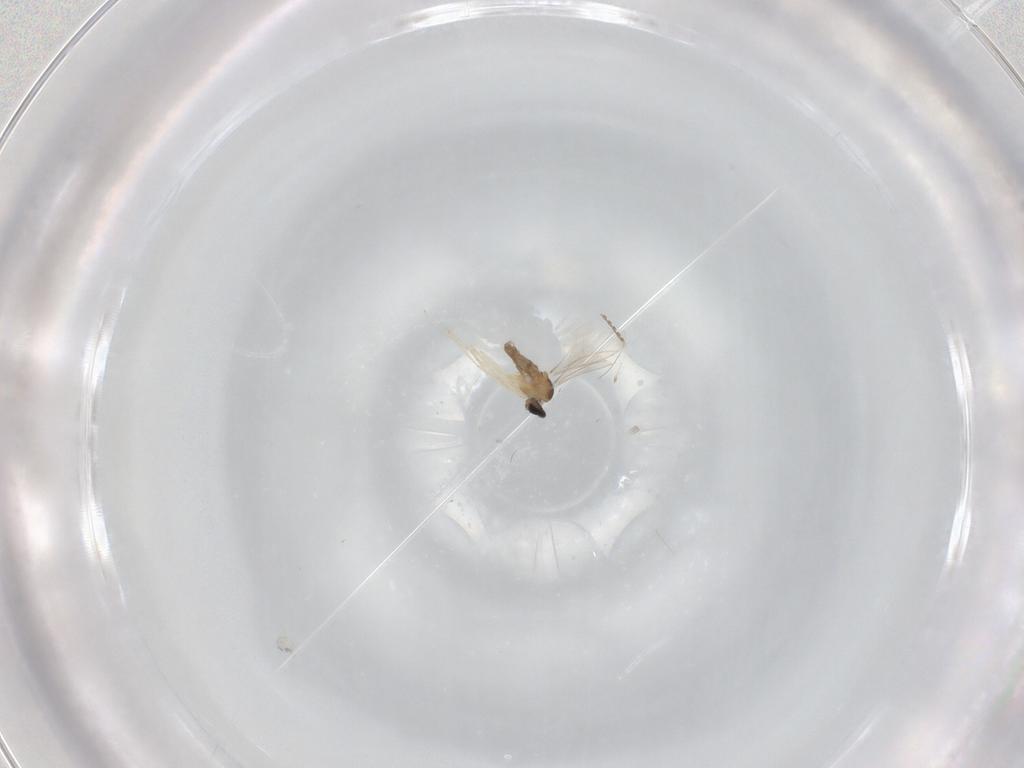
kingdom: Animalia
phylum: Arthropoda
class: Insecta
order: Diptera
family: Cecidomyiidae
